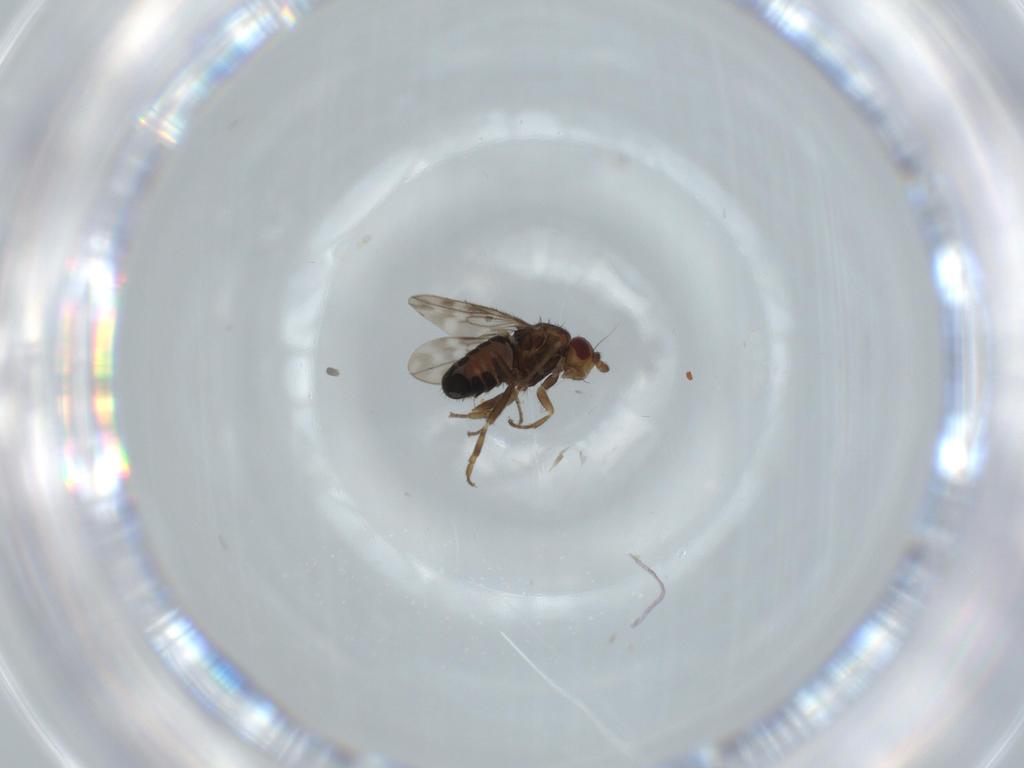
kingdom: Animalia
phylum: Arthropoda
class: Insecta
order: Diptera
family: Sphaeroceridae
